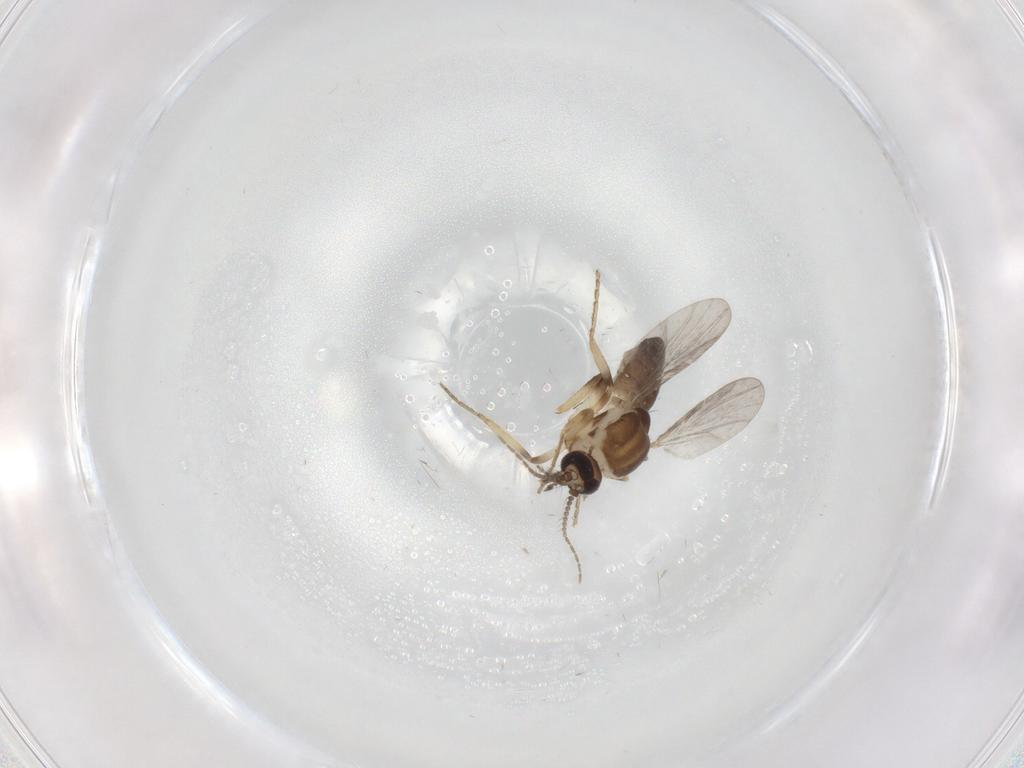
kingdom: Animalia
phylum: Arthropoda
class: Insecta
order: Diptera
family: Ceratopogonidae
